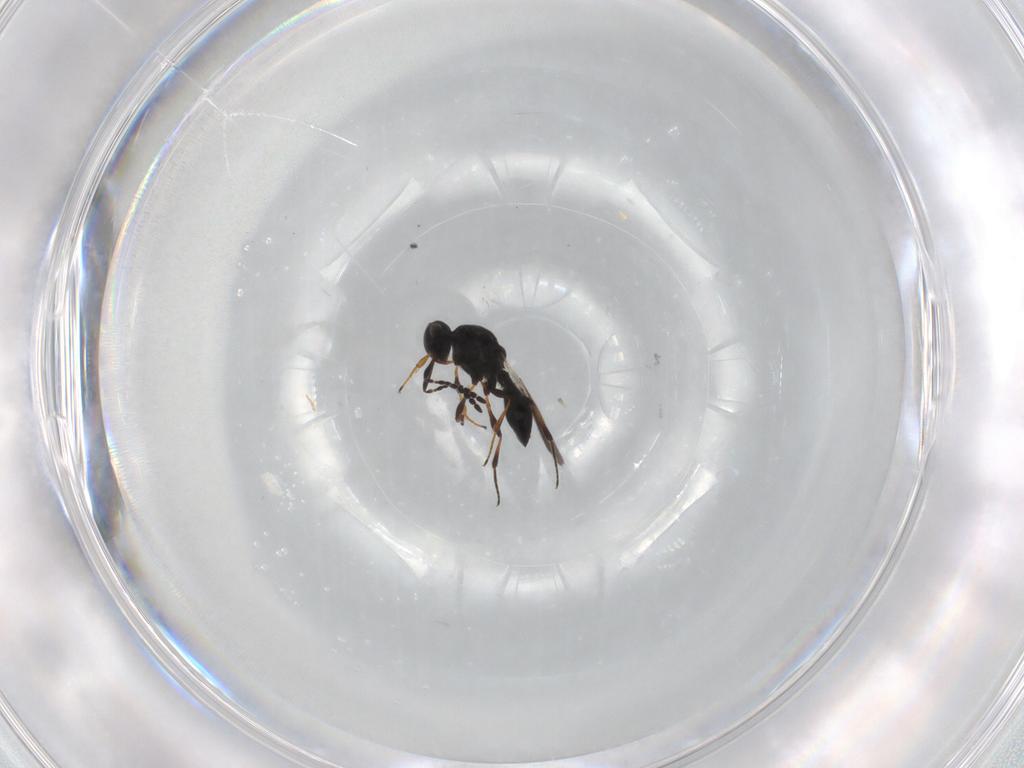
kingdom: Animalia
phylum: Arthropoda
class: Insecta
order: Hymenoptera
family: Platygastridae
